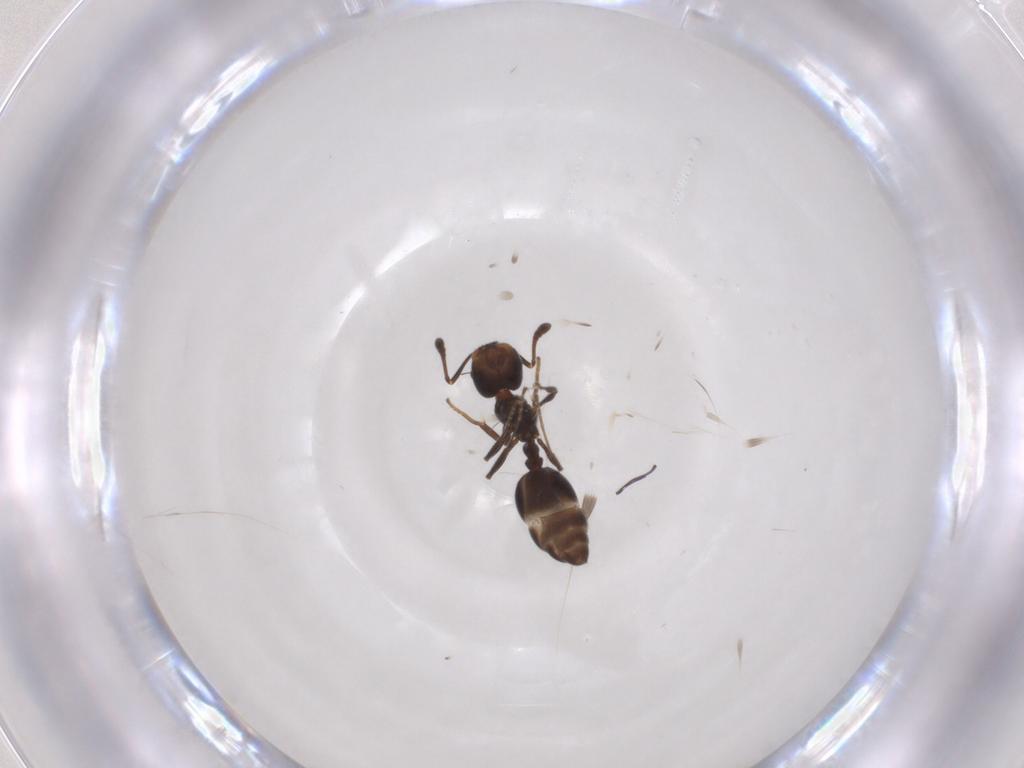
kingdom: Animalia
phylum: Arthropoda
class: Insecta
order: Hymenoptera
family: Formicidae
